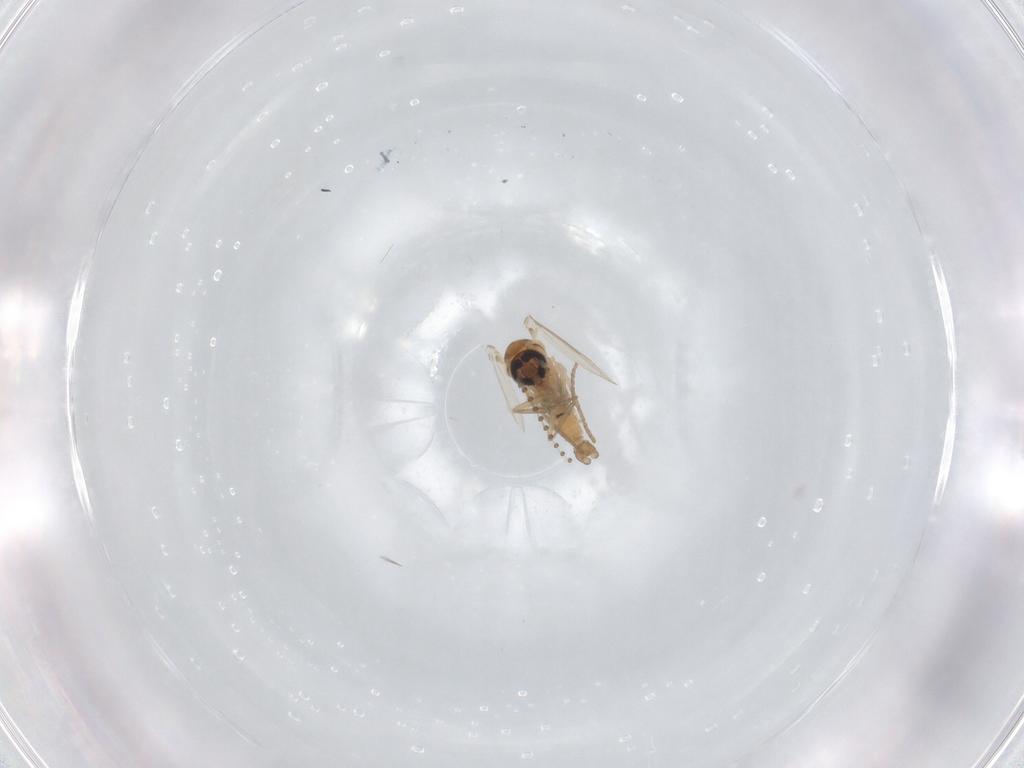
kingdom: Animalia
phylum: Arthropoda
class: Insecta
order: Diptera
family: Psychodidae
